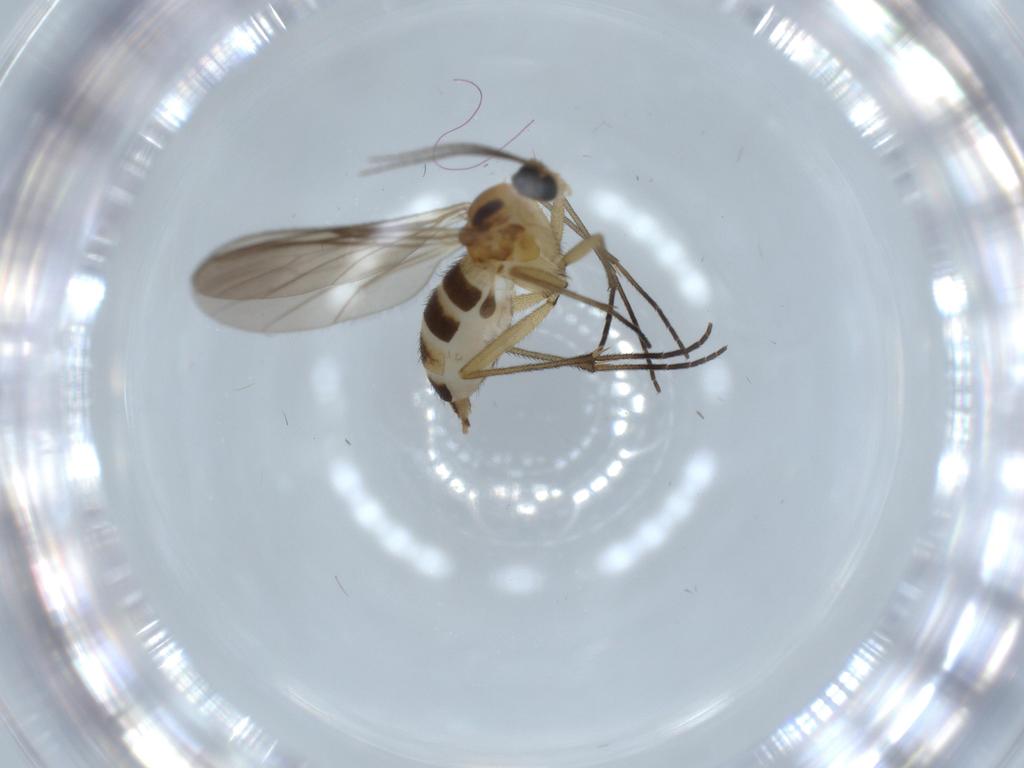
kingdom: Animalia
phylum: Arthropoda
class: Insecta
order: Diptera
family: Sciaridae
